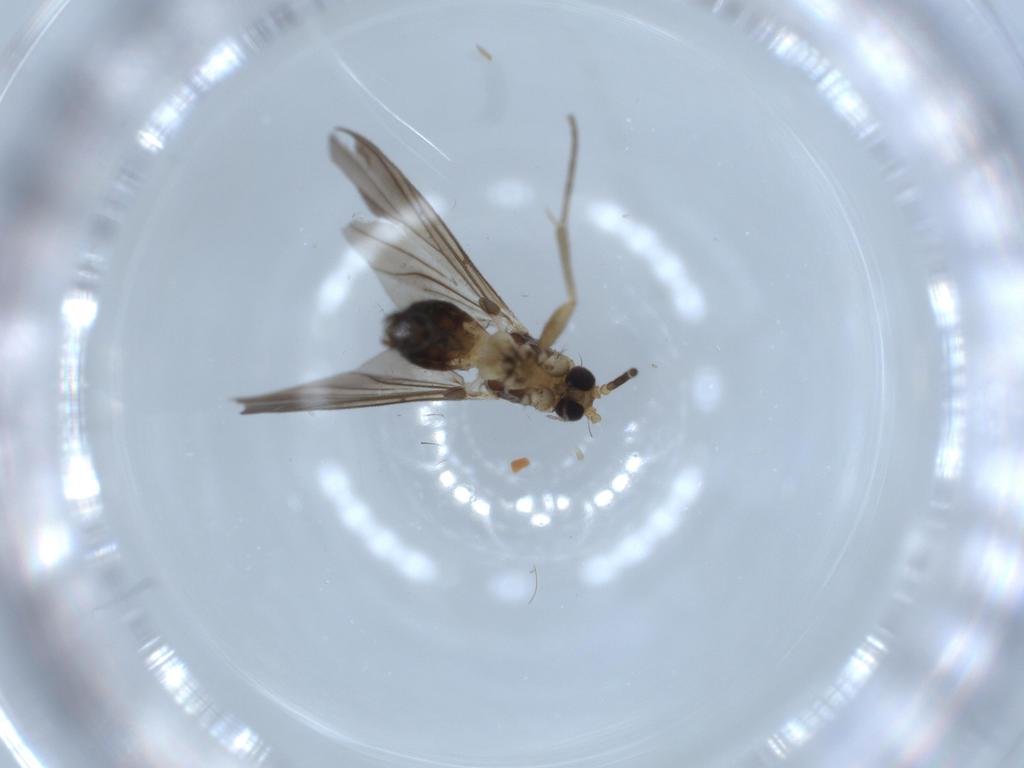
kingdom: Animalia
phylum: Arthropoda
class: Insecta
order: Diptera
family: Mycetophilidae
